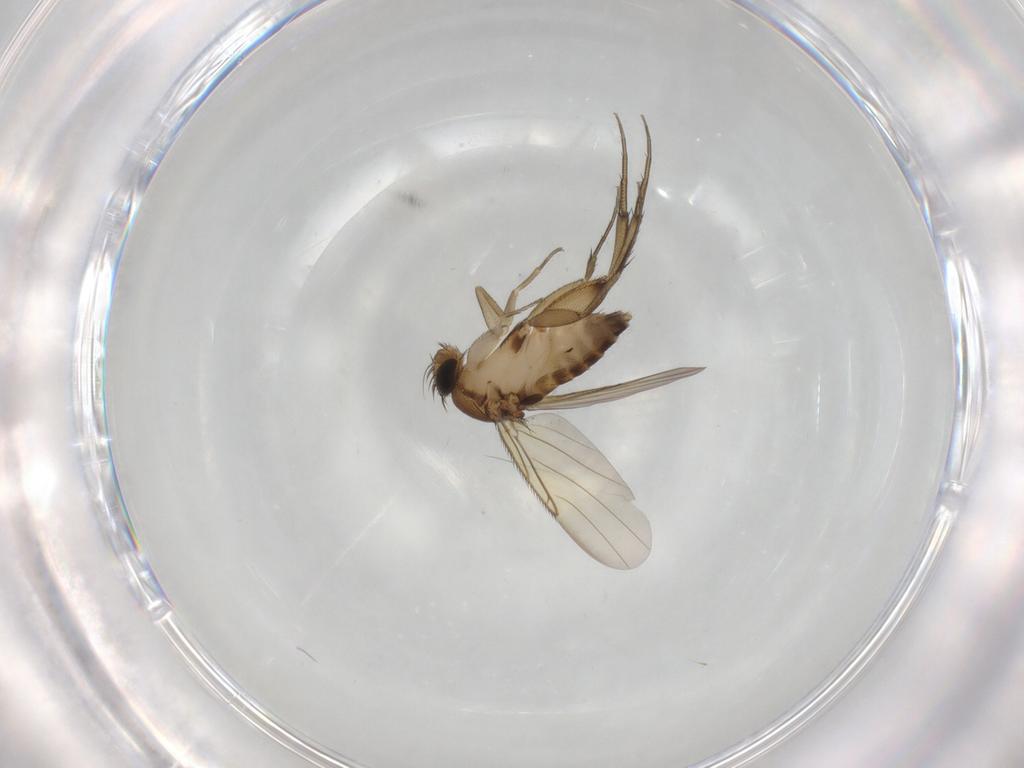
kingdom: Animalia
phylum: Arthropoda
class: Insecta
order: Diptera
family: Phoridae
